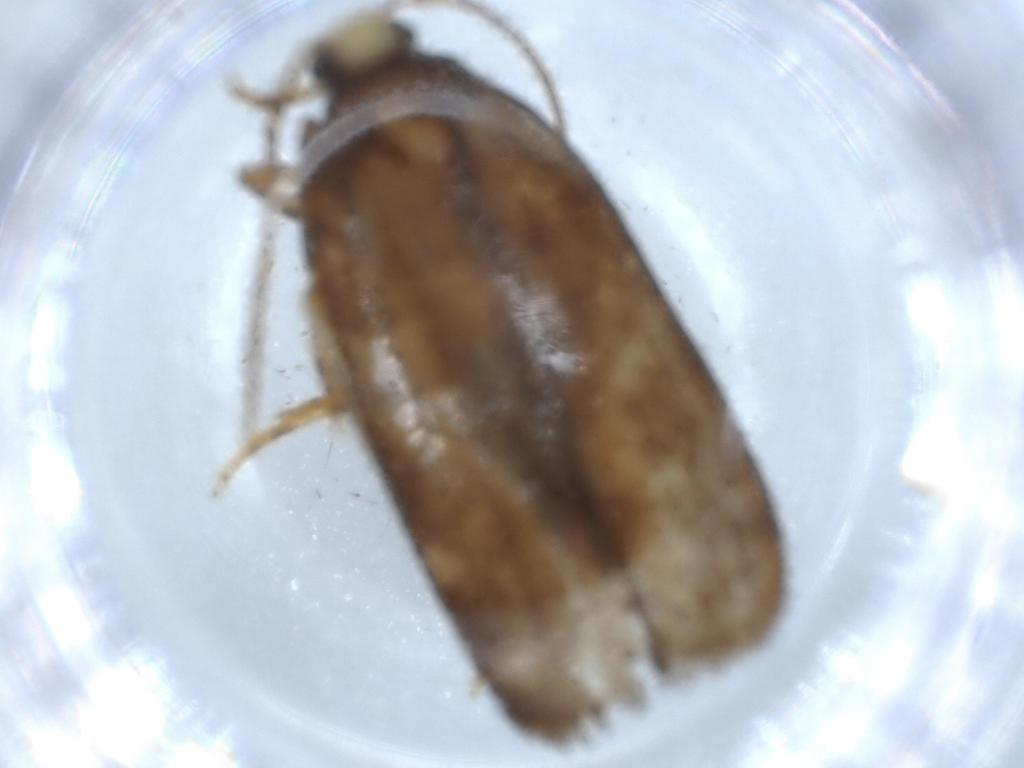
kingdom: Animalia
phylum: Arthropoda
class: Insecta
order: Lepidoptera
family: Autostichidae
